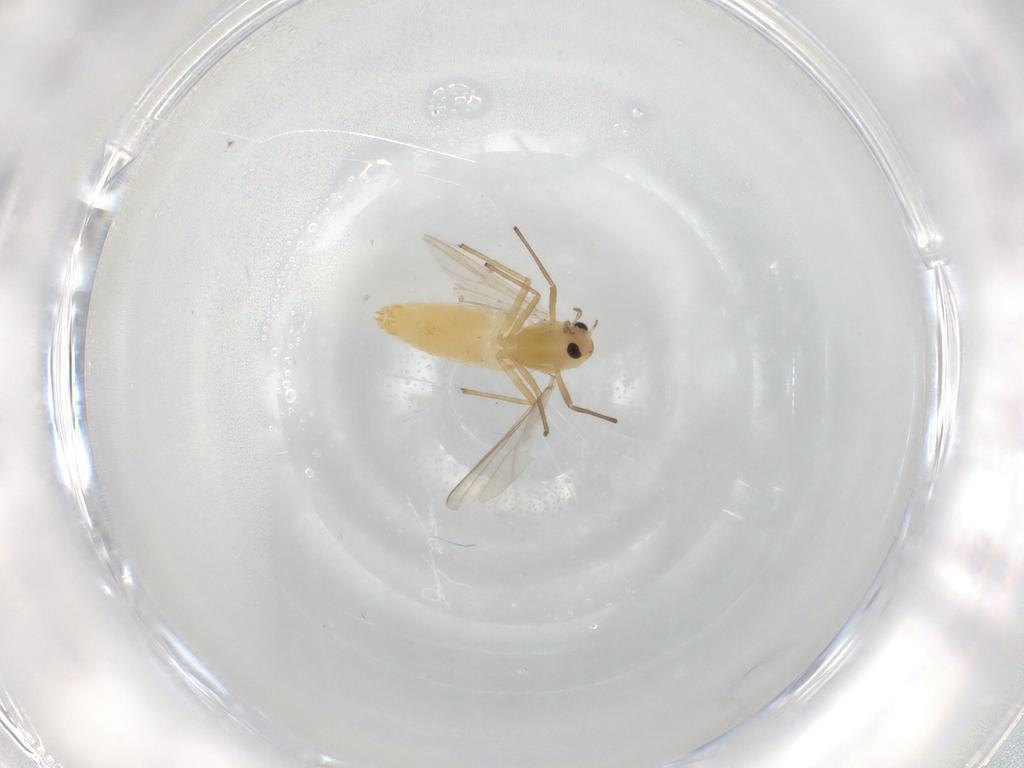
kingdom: Animalia
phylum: Arthropoda
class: Insecta
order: Diptera
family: Chironomidae
